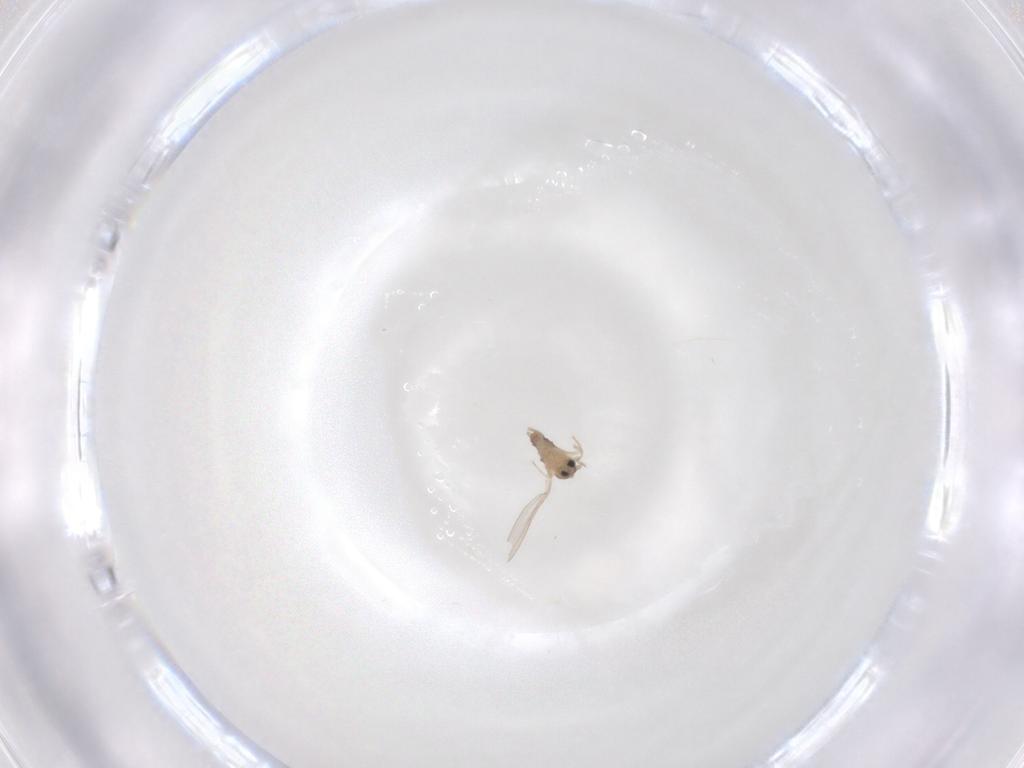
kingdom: Animalia
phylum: Arthropoda
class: Insecta
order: Diptera
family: Cecidomyiidae
